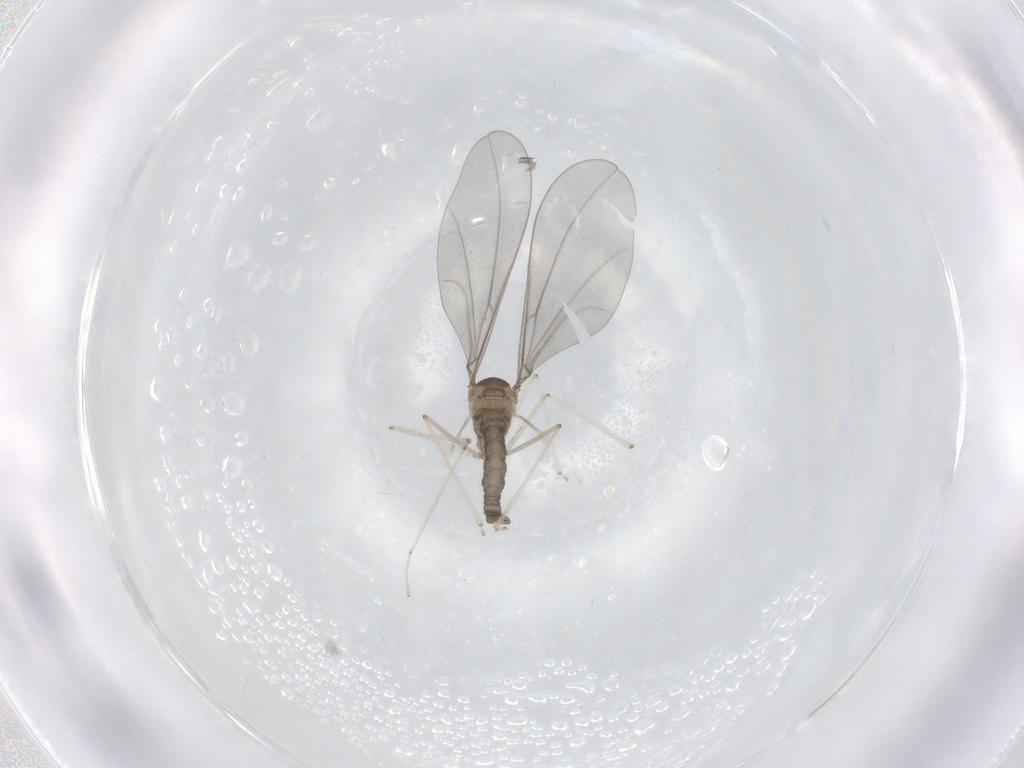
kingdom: Animalia
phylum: Arthropoda
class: Insecta
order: Diptera
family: Cecidomyiidae
